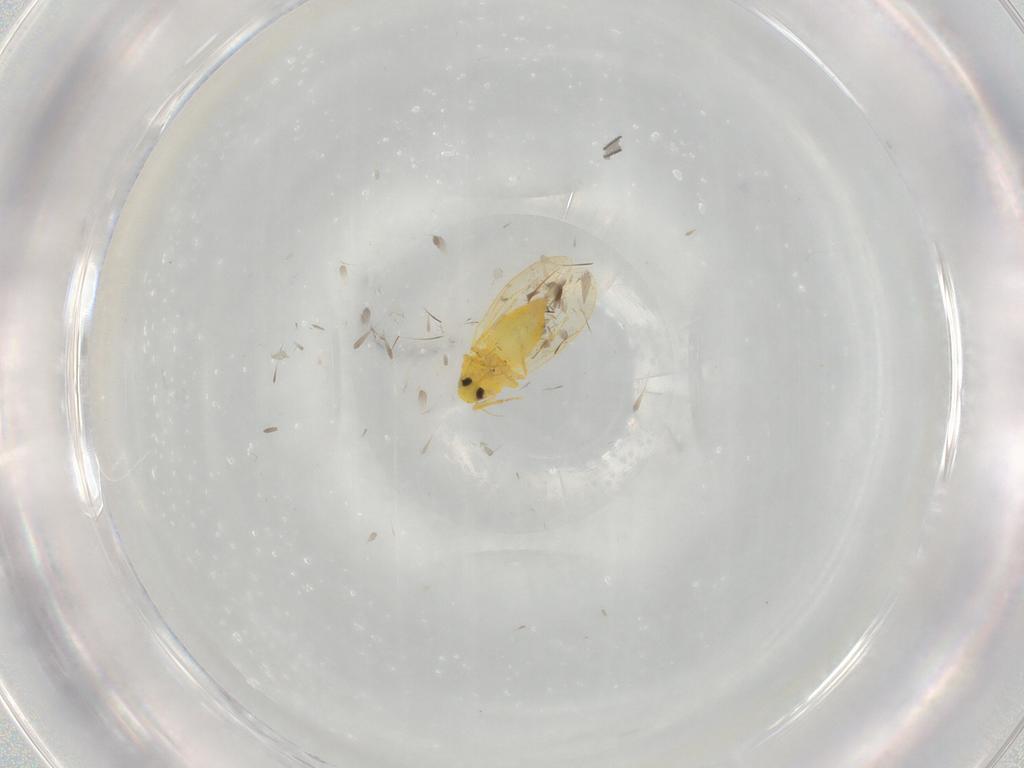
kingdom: Animalia
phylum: Arthropoda
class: Insecta
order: Hemiptera
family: Aleyrodidae
